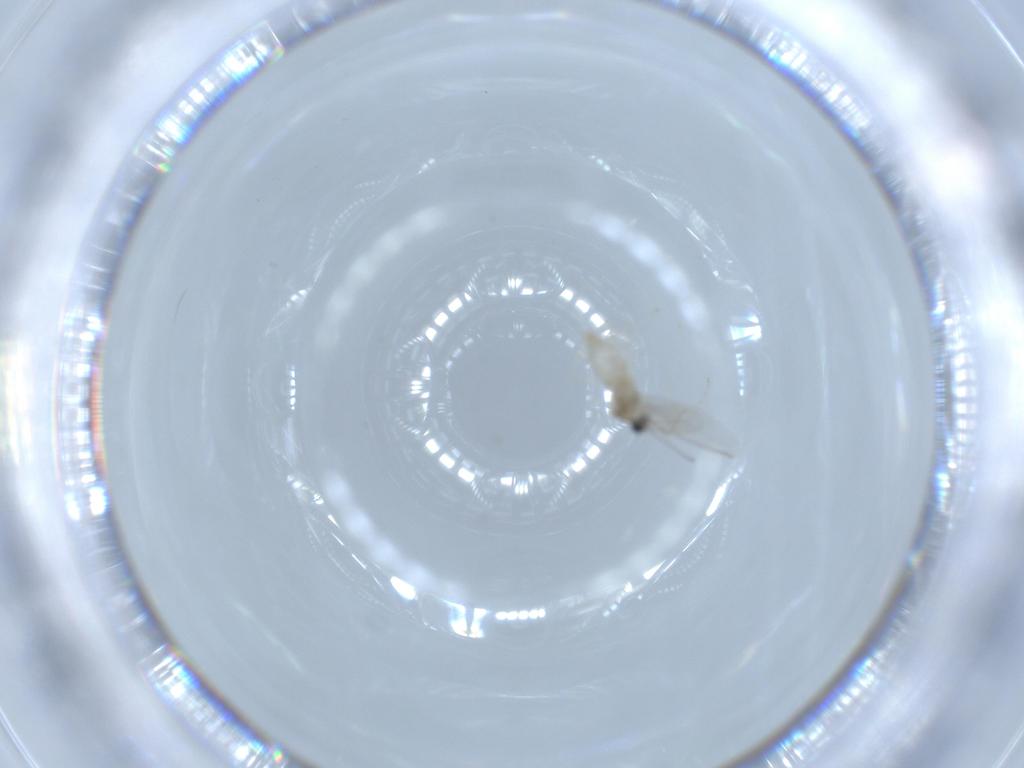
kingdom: Animalia
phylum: Arthropoda
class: Insecta
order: Diptera
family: Cecidomyiidae
